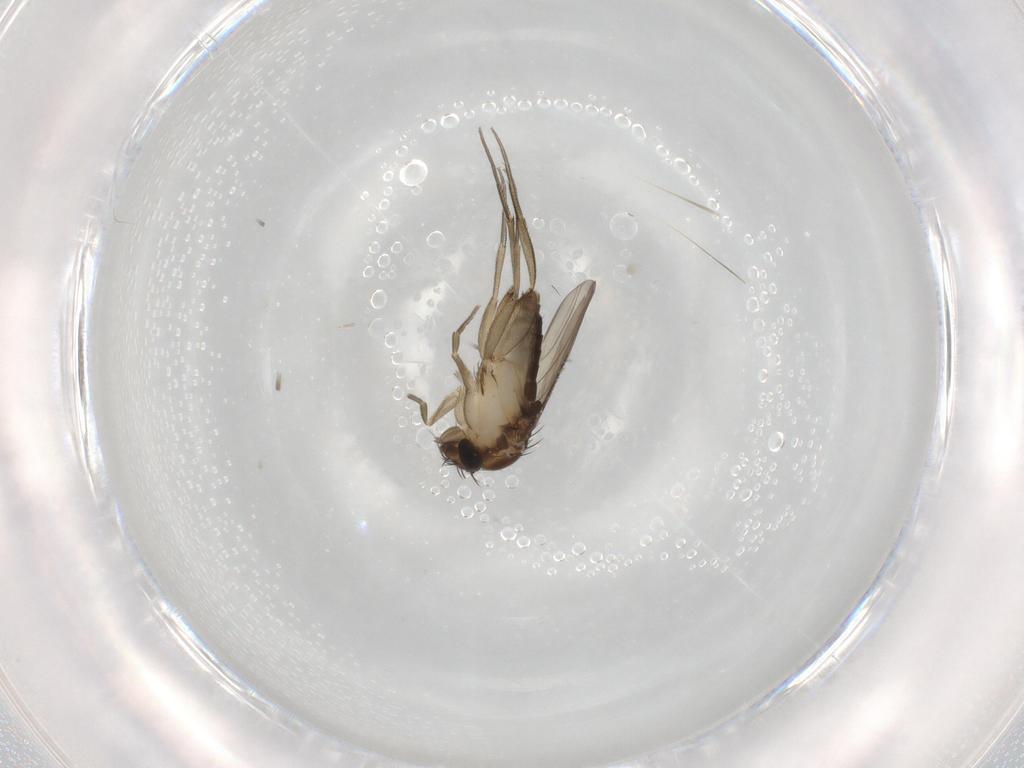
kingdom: Animalia
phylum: Arthropoda
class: Insecta
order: Diptera
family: Phoridae
